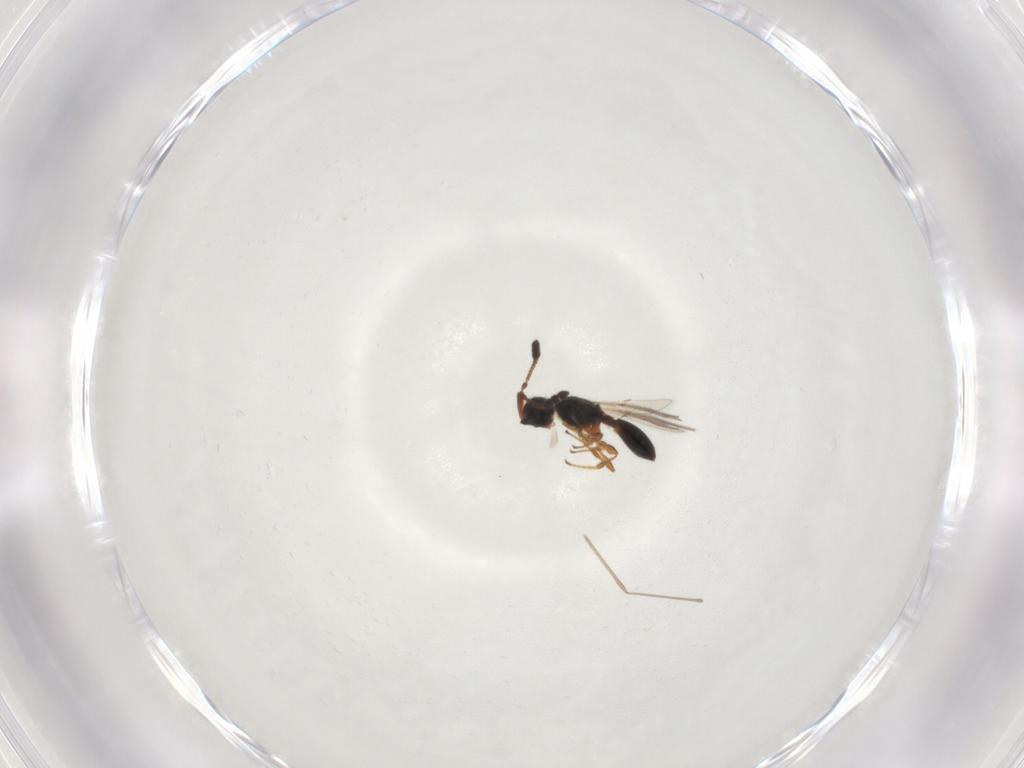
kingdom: Animalia
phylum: Arthropoda
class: Insecta
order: Hymenoptera
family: Diapriidae
